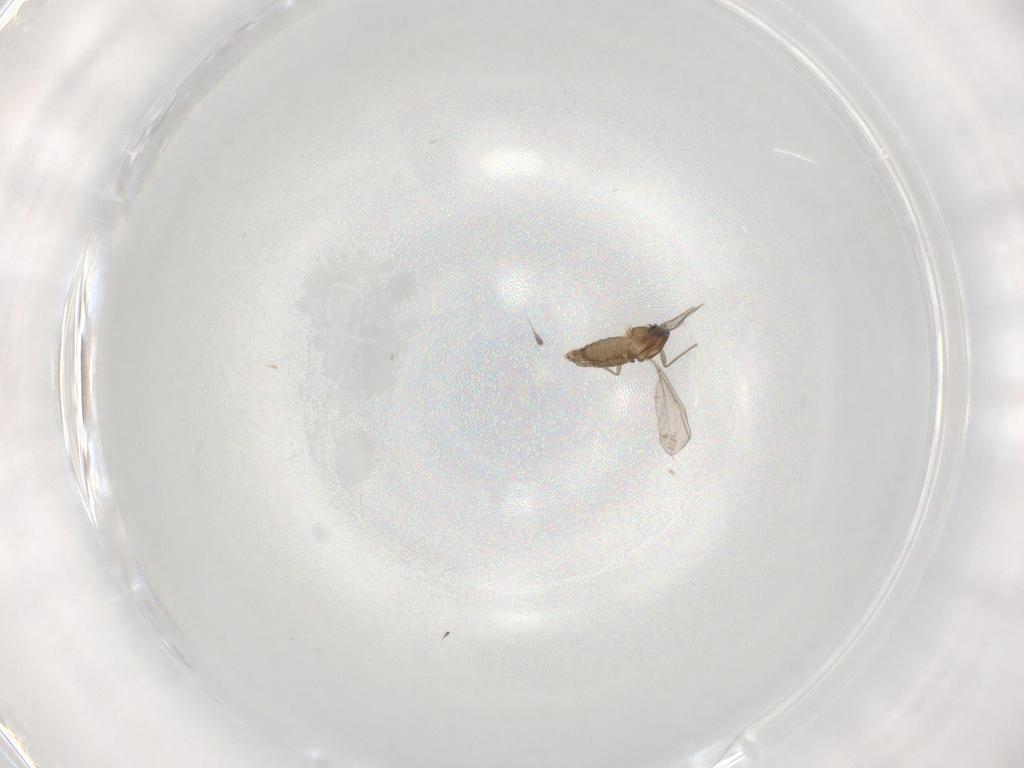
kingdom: Animalia
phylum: Arthropoda
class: Insecta
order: Diptera
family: Chironomidae
